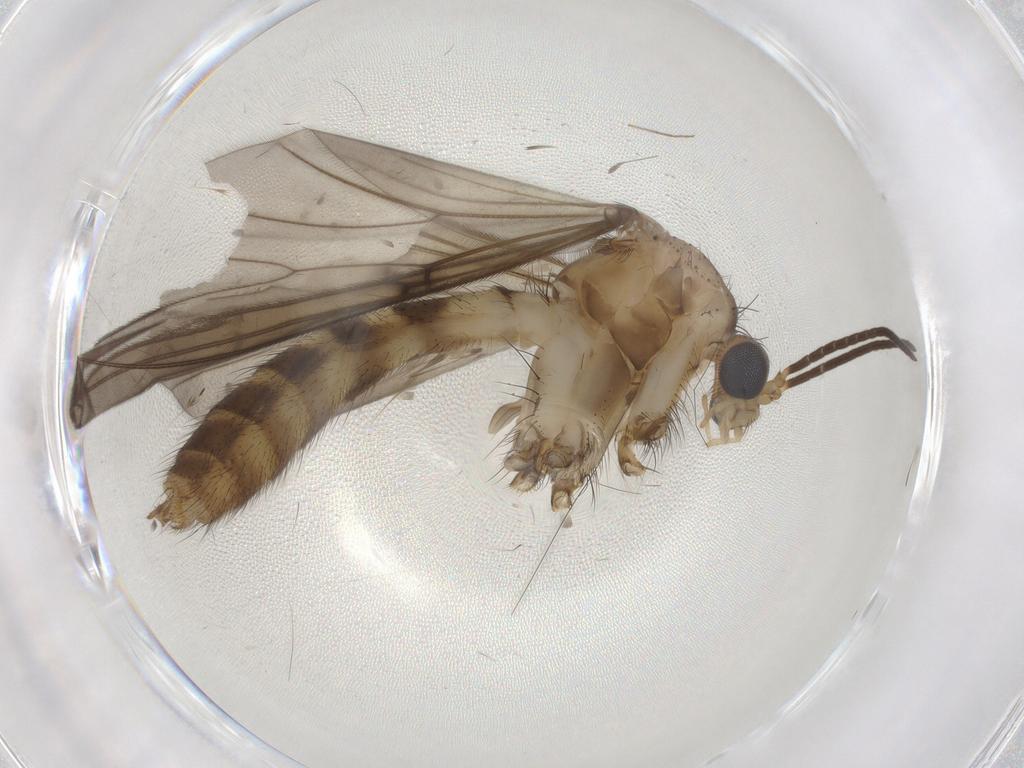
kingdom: Animalia
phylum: Arthropoda
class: Insecta
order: Diptera
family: Mycetophilidae
